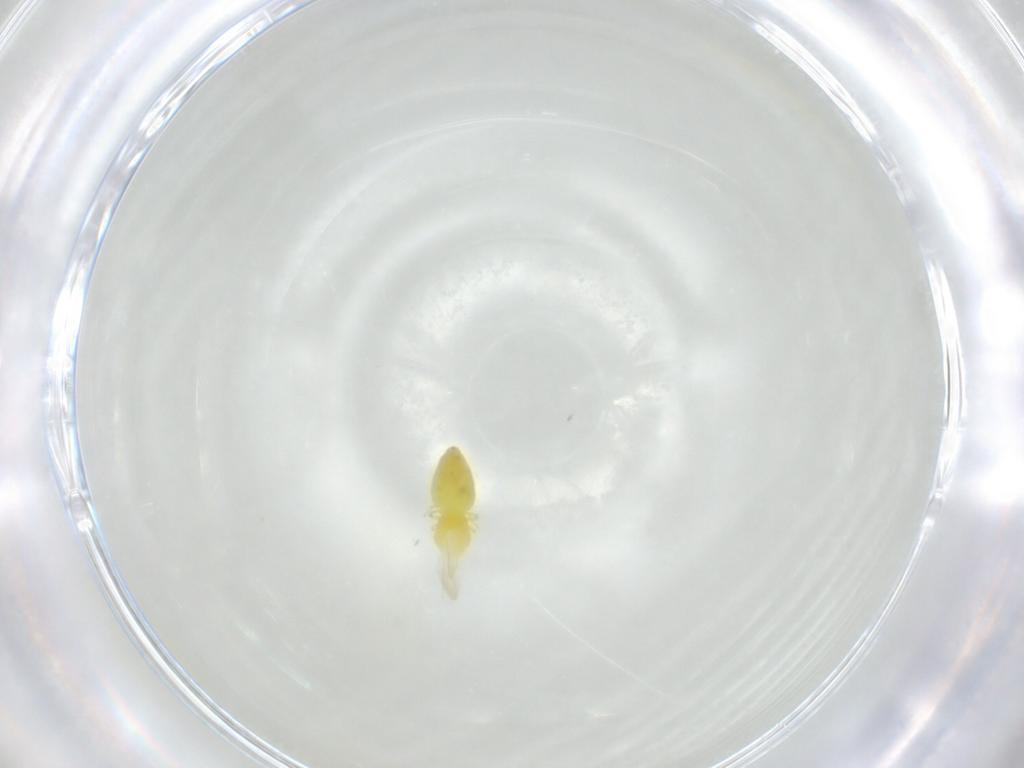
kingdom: Animalia
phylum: Arthropoda
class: Insecta
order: Hemiptera
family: Aleyrodidae
